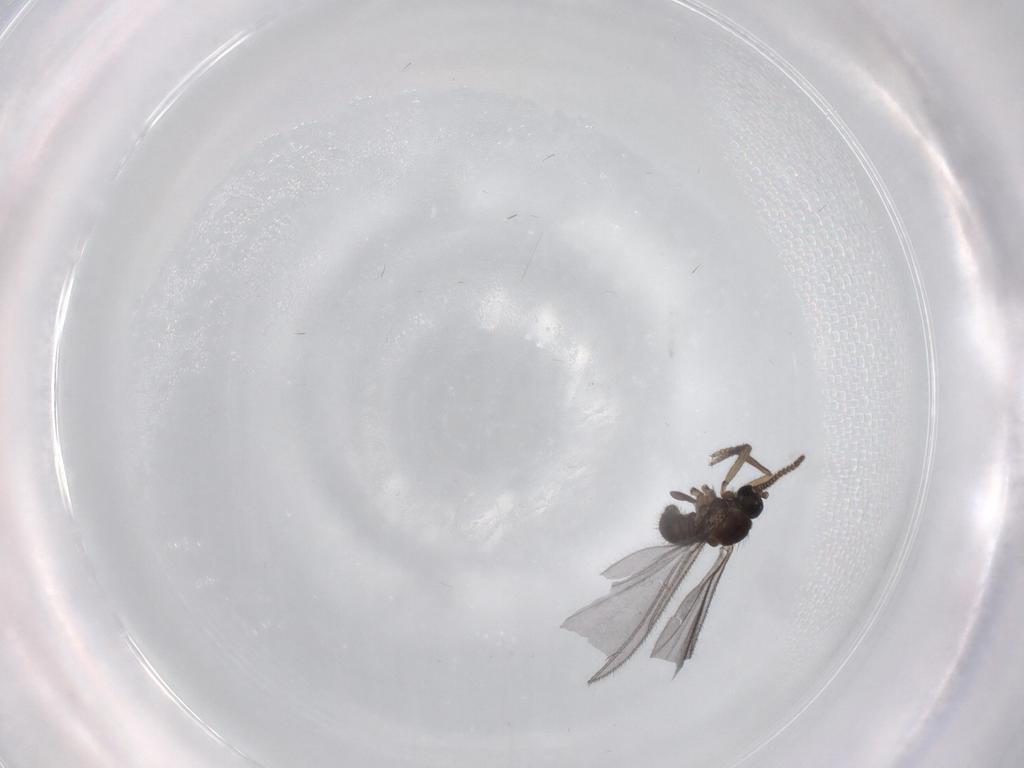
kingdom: Animalia
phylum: Arthropoda
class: Insecta
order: Diptera
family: Sciaridae
